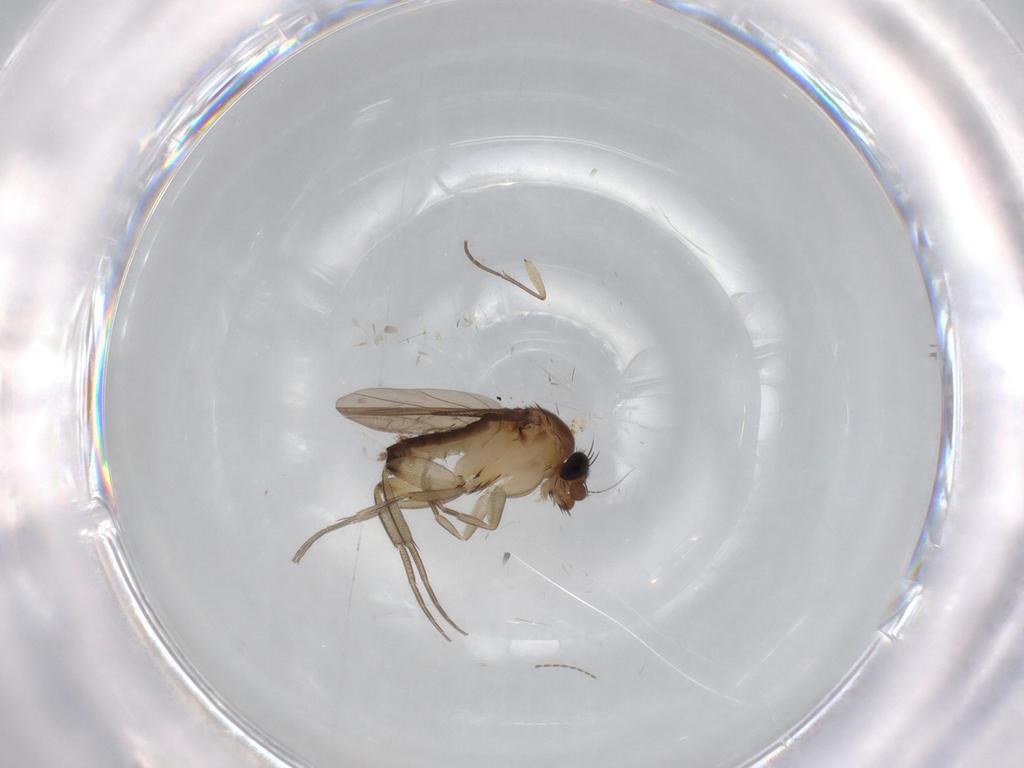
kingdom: Animalia
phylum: Arthropoda
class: Insecta
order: Diptera
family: Phoridae
